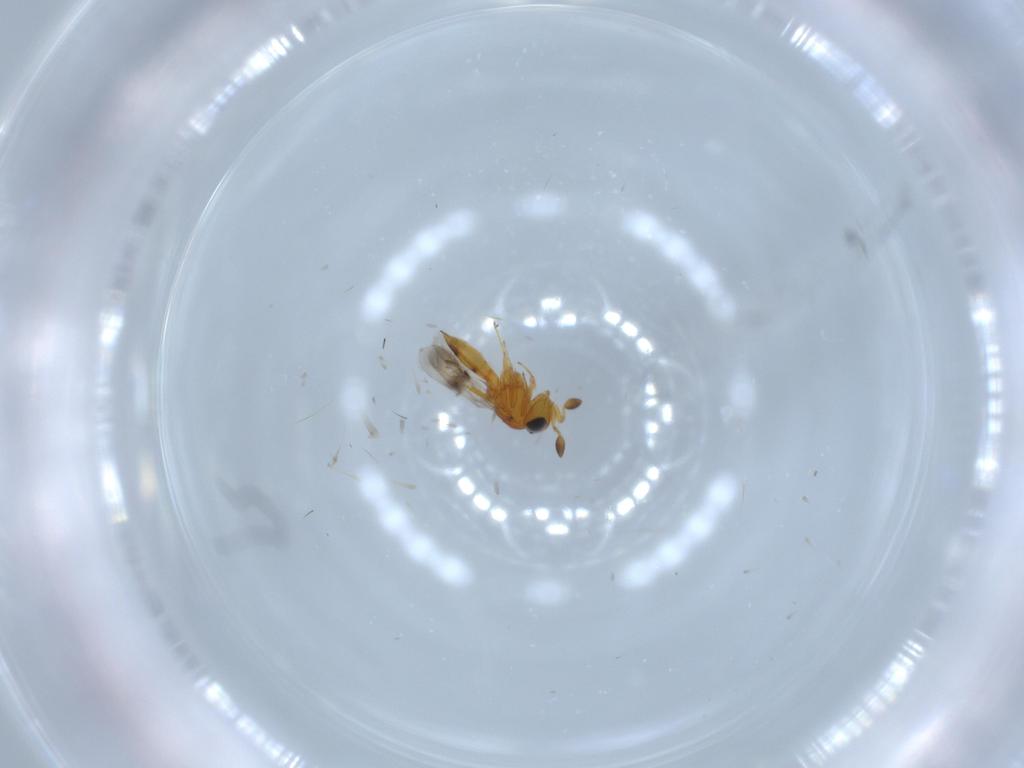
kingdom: Animalia
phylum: Arthropoda
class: Insecta
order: Hymenoptera
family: Scelionidae
